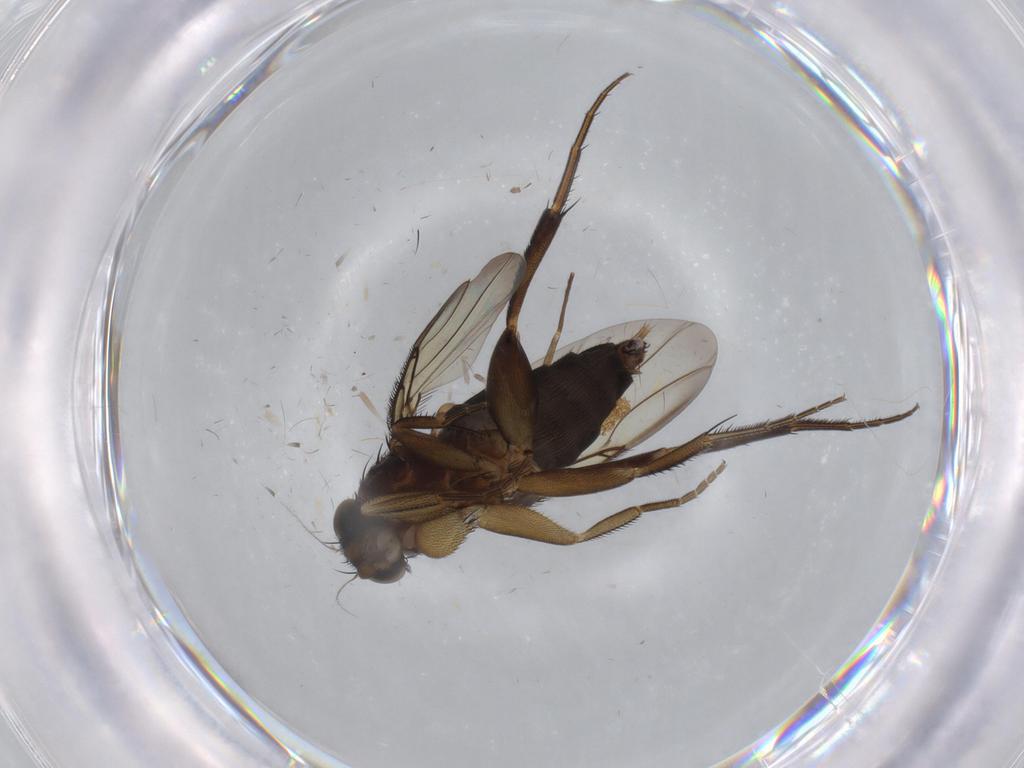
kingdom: Animalia
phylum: Arthropoda
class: Insecta
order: Diptera
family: Phoridae
